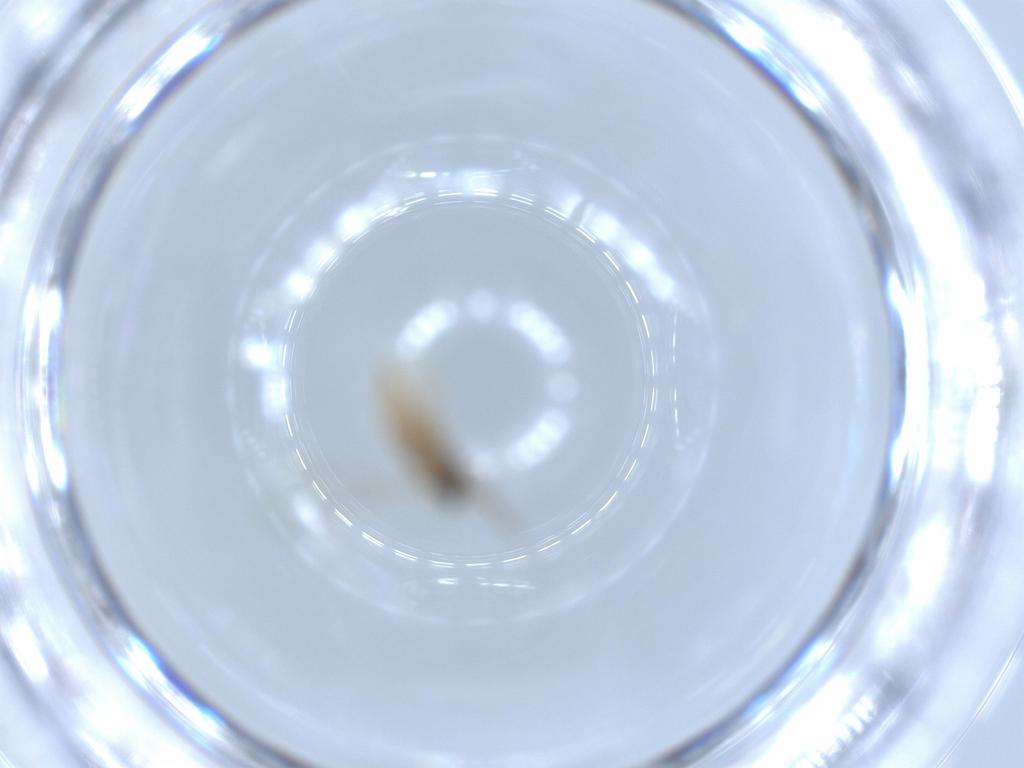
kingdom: Animalia
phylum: Arthropoda
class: Insecta
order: Diptera
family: Cecidomyiidae
